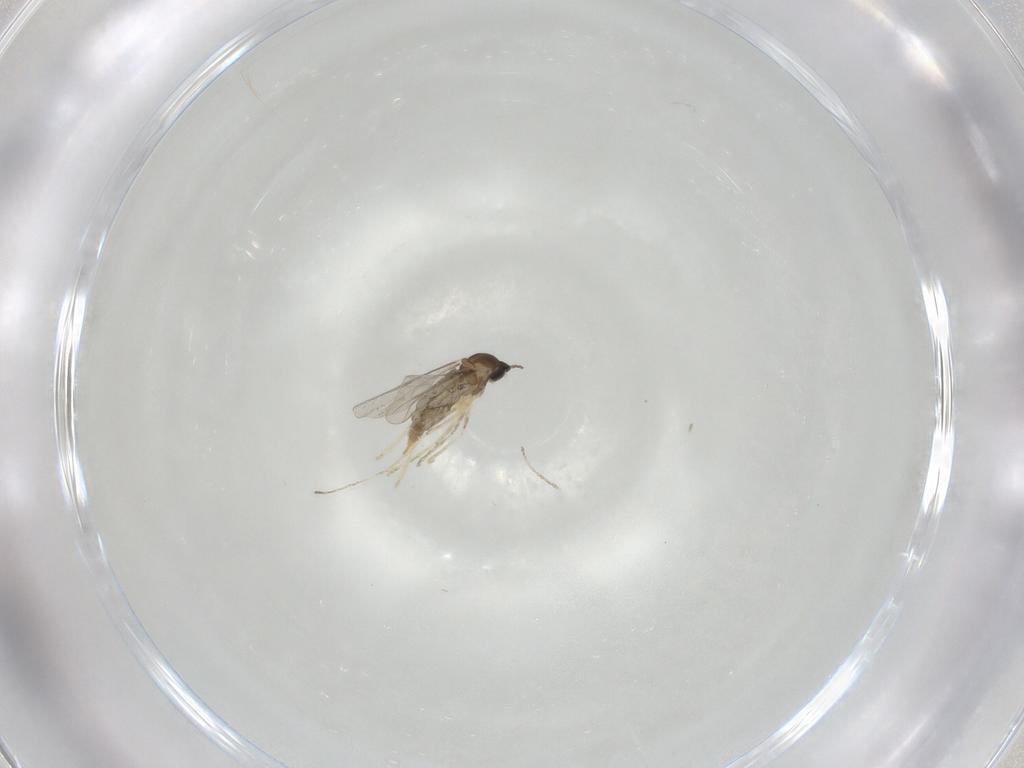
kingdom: Animalia
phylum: Arthropoda
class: Insecta
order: Diptera
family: Cecidomyiidae
